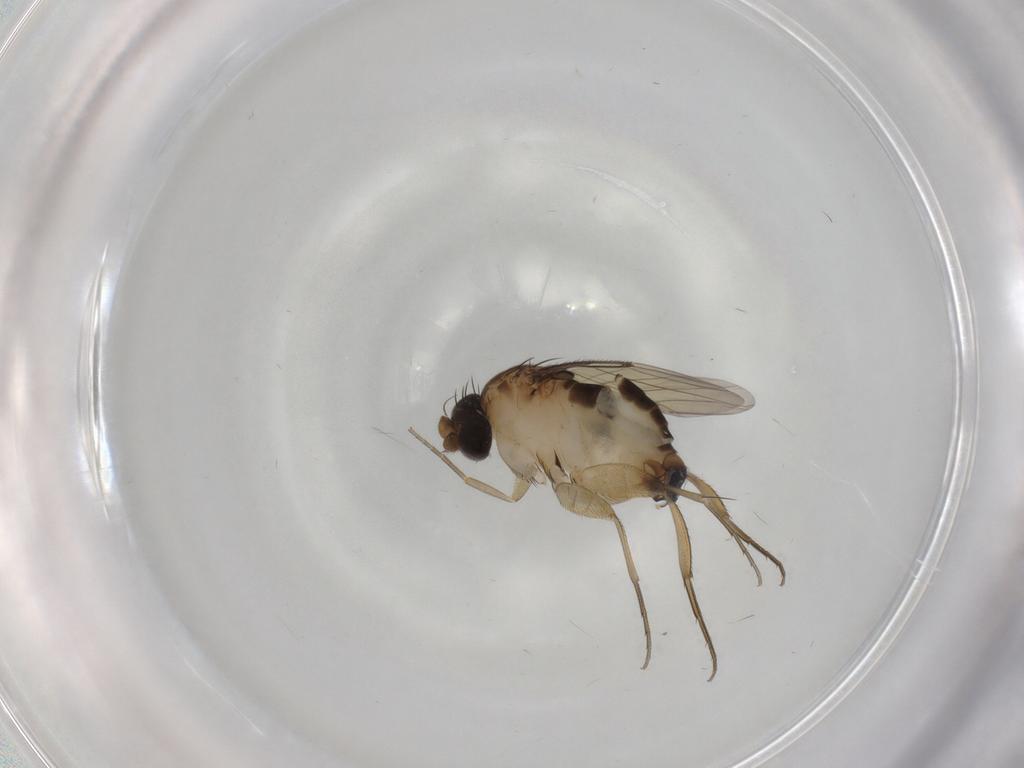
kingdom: Animalia
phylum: Arthropoda
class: Insecta
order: Diptera
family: Phoridae
